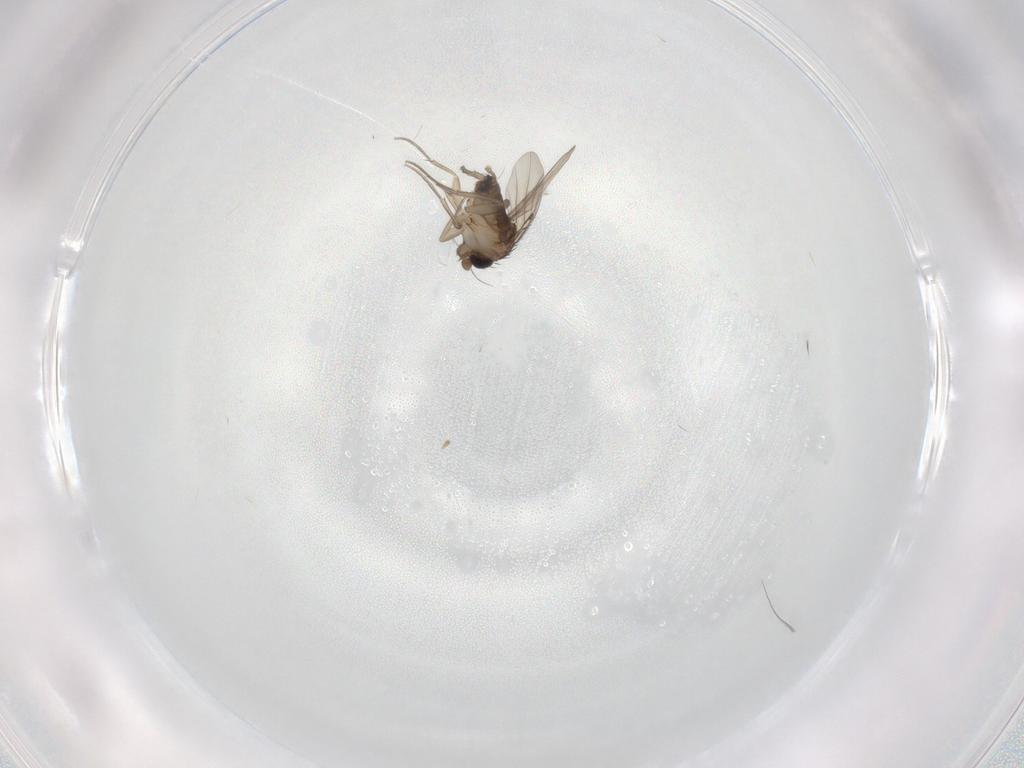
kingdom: Animalia
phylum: Arthropoda
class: Insecta
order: Diptera
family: Phoridae
